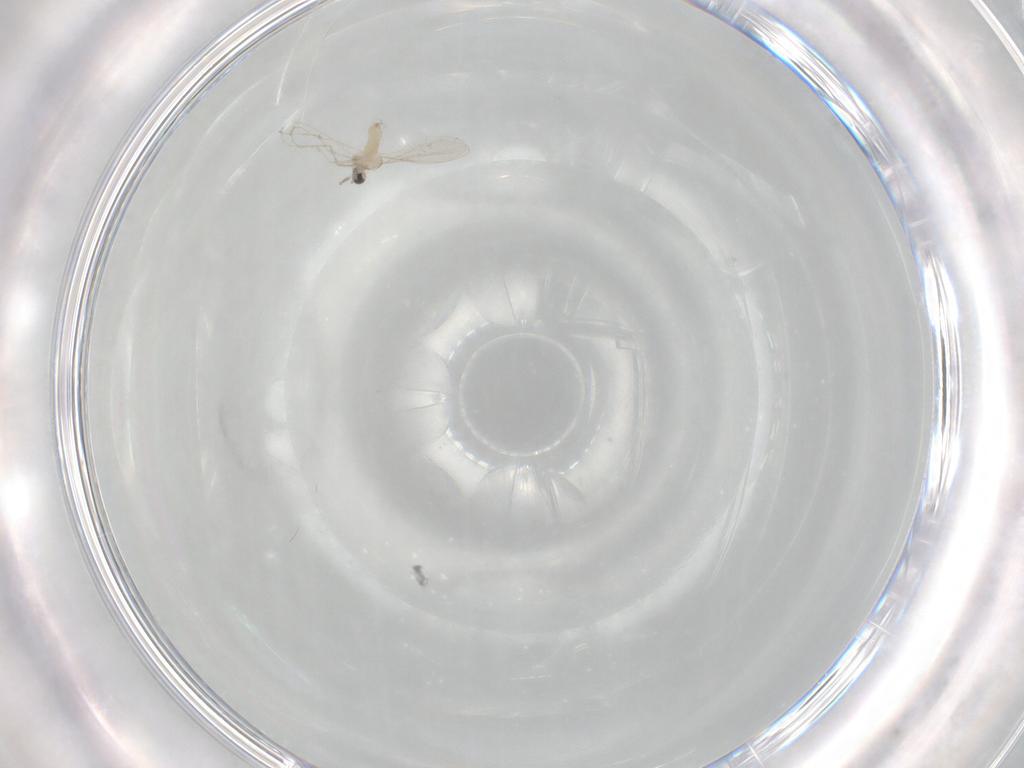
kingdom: Animalia
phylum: Arthropoda
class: Insecta
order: Diptera
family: Cecidomyiidae
